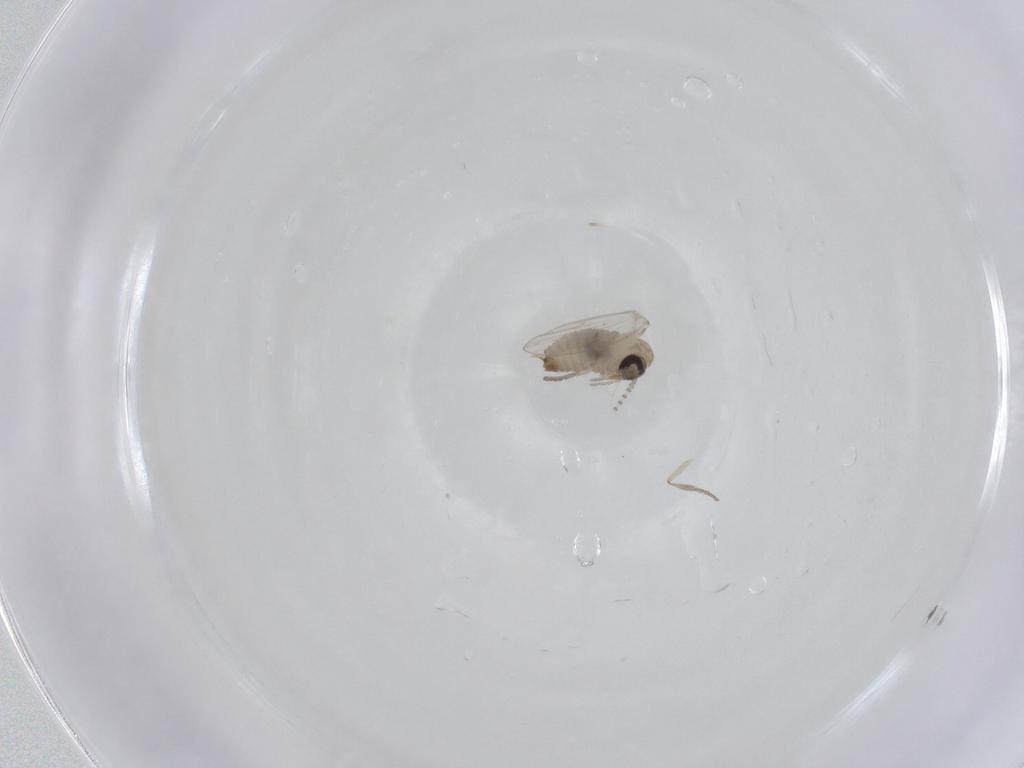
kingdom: Animalia
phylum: Arthropoda
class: Insecta
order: Diptera
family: Psychodidae
